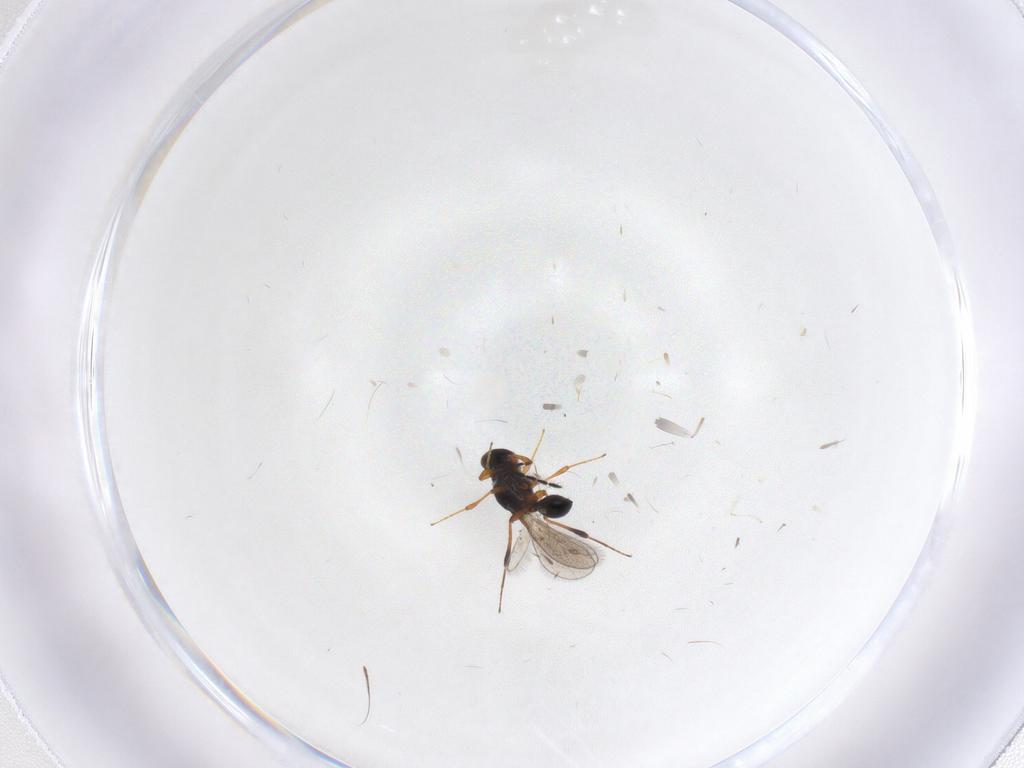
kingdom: Animalia
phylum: Arthropoda
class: Insecta
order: Hymenoptera
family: Platygastridae
